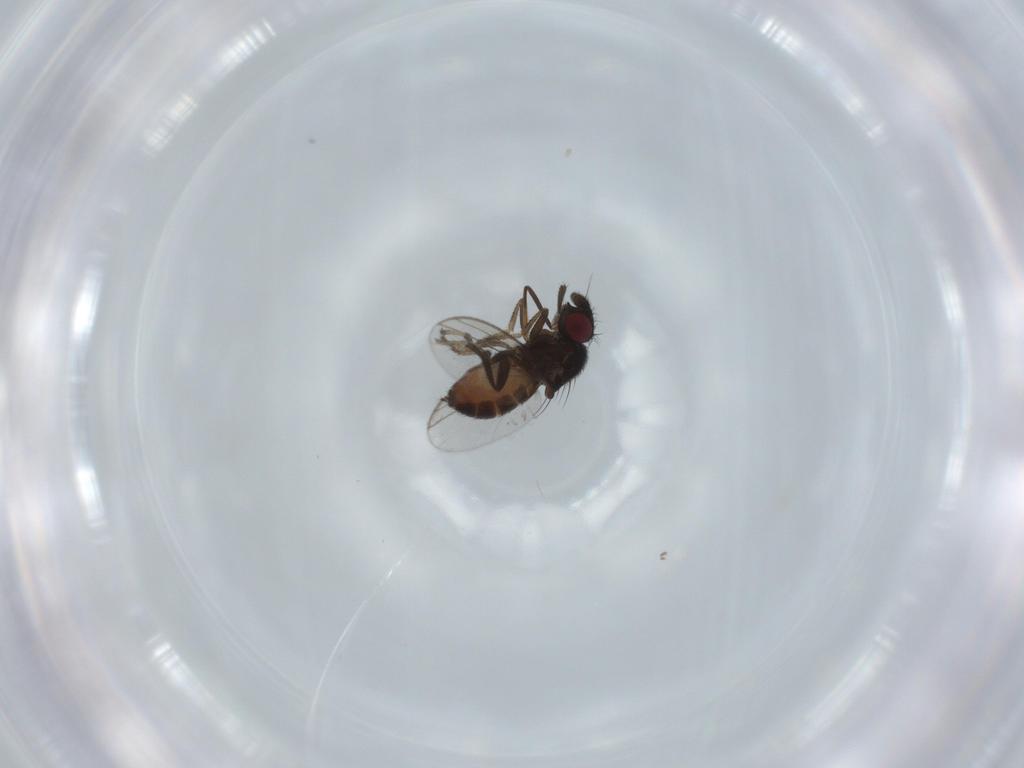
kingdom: Animalia
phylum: Arthropoda
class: Insecta
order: Diptera
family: Milichiidae
